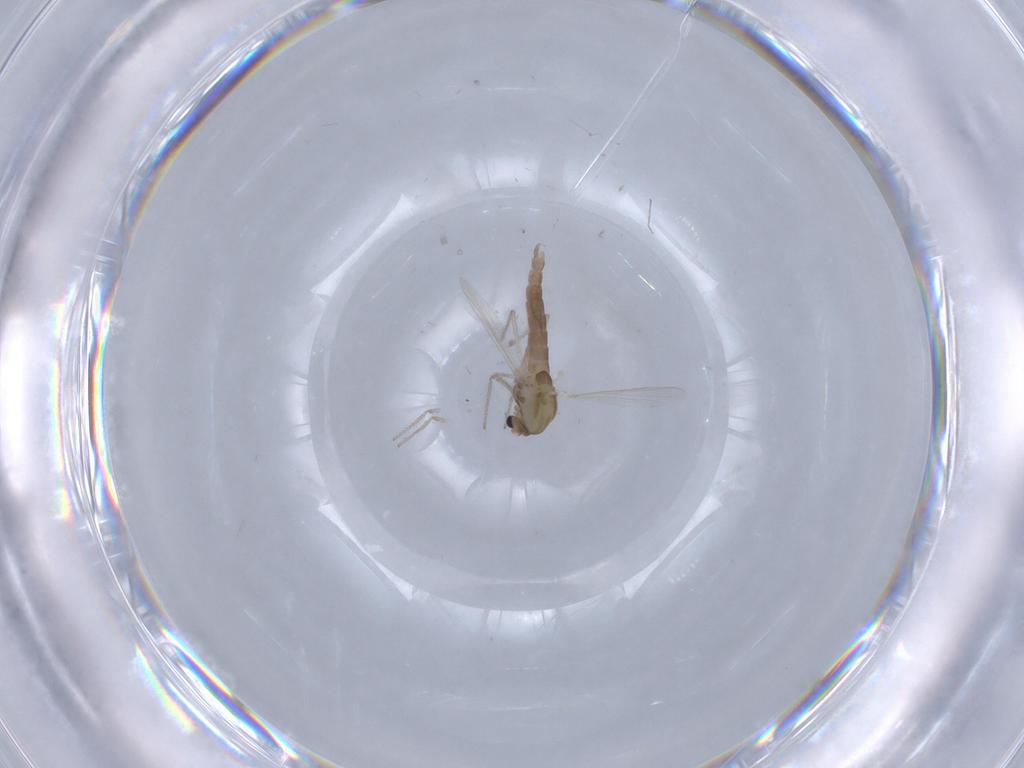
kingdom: Animalia
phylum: Arthropoda
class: Insecta
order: Diptera
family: Chironomidae
